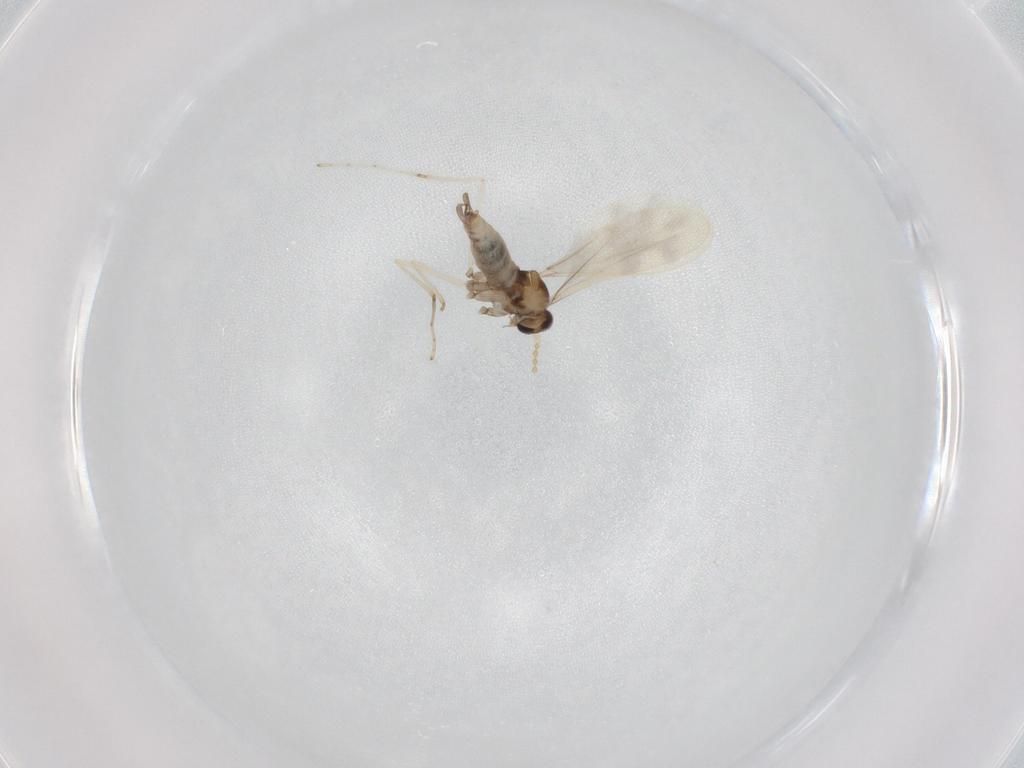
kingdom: Animalia
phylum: Arthropoda
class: Insecta
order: Diptera
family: Cecidomyiidae
